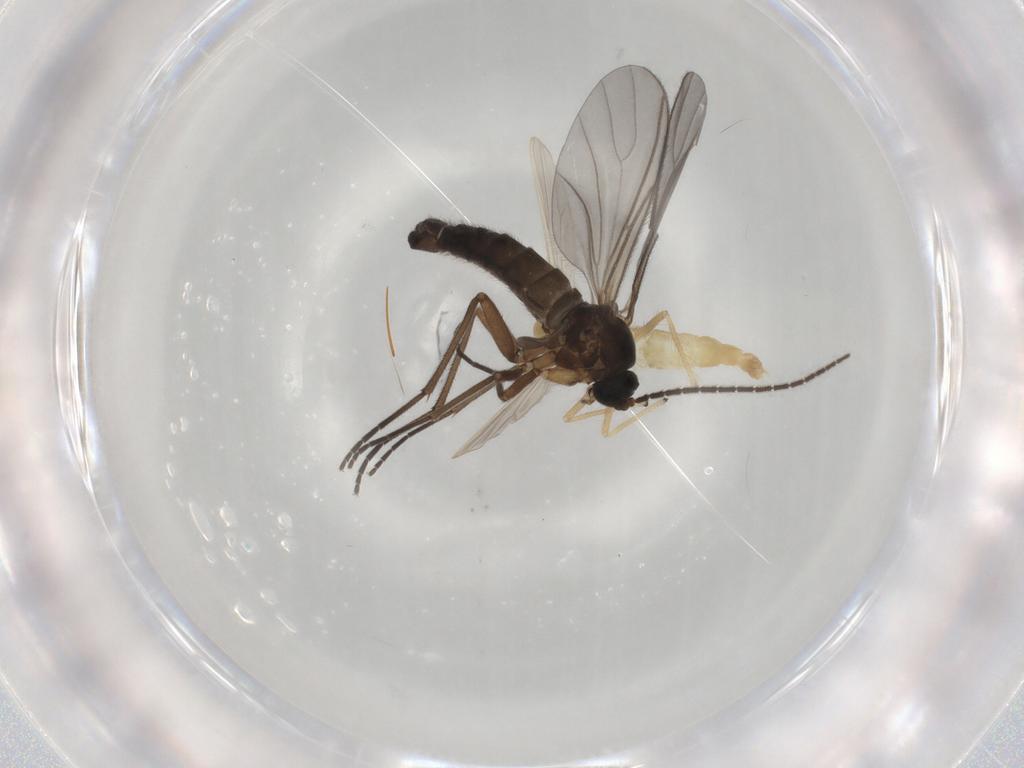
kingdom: Animalia
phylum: Arthropoda
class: Insecta
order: Diptera
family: Chironomidae
